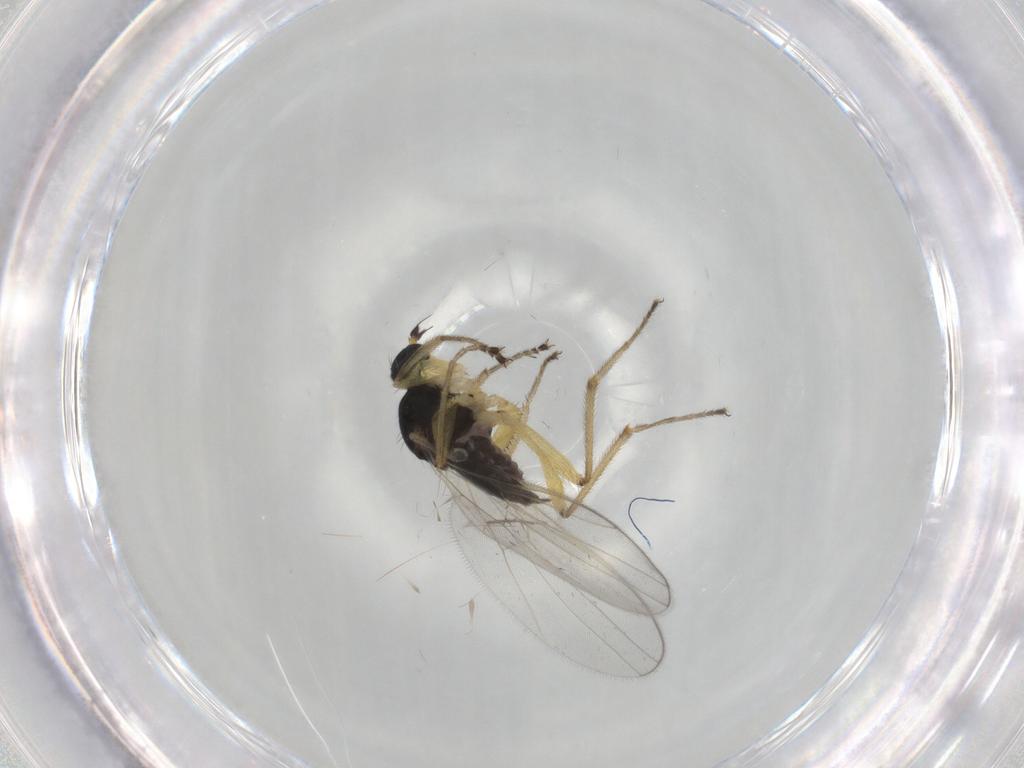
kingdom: Animalia
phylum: Arthropoda
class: Insecta
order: Diptera
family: Hybotidae
